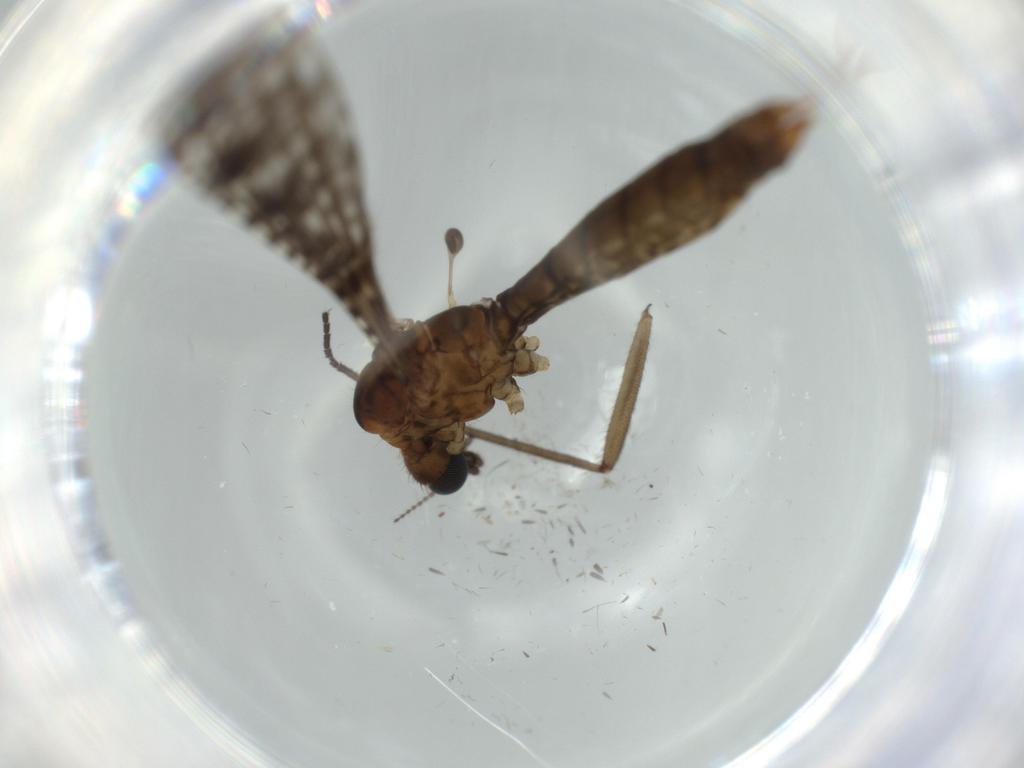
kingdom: Animalia
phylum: Arthropoda
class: Insecta
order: Diptera
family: Limoniidae
